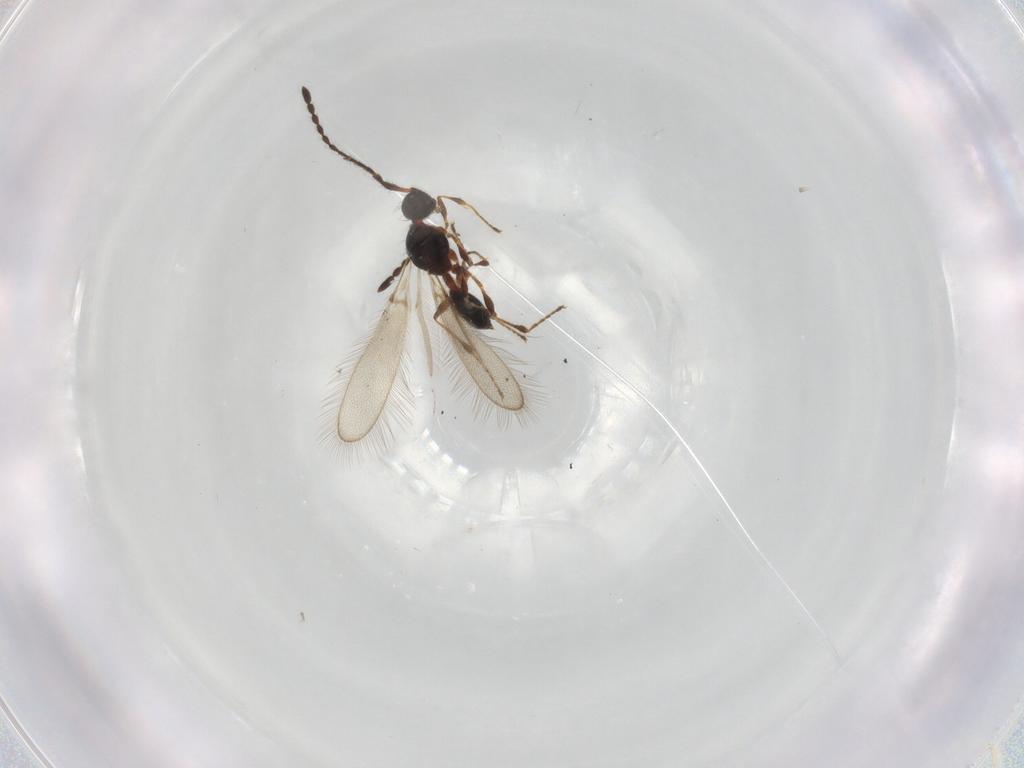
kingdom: Animalia
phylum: Arthropoda
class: Insecta
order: Hymenoptera
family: Diapriidae
